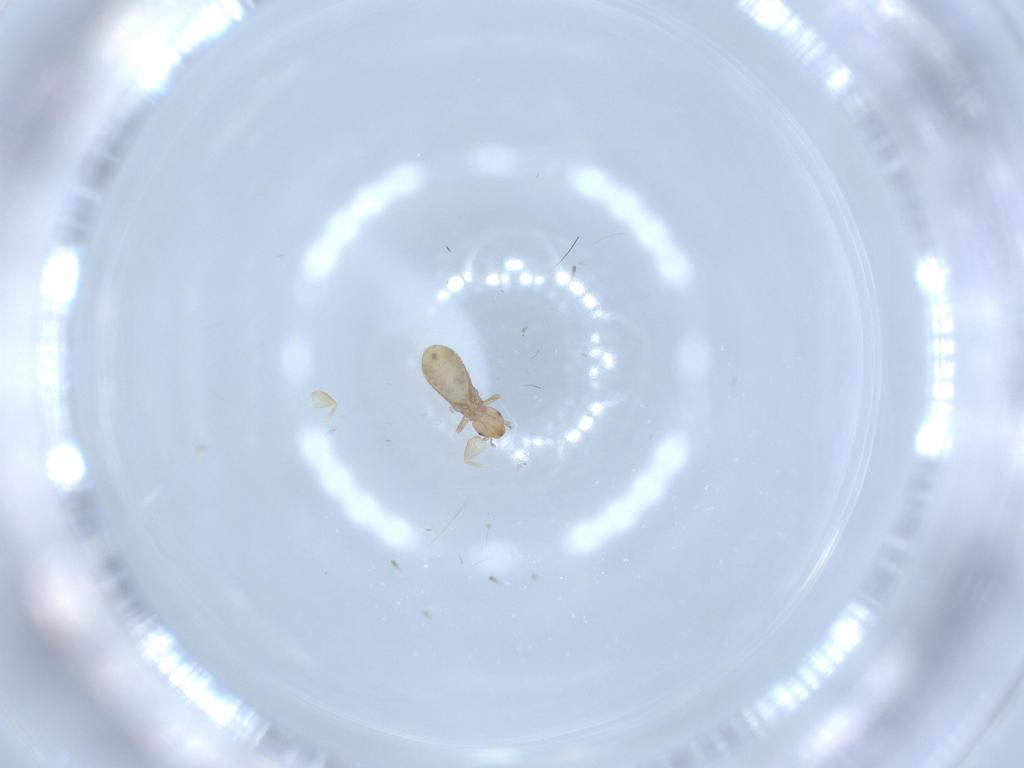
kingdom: Animalia
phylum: Arthropoda
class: Insecta
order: Psocodea
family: Liposcelididae
